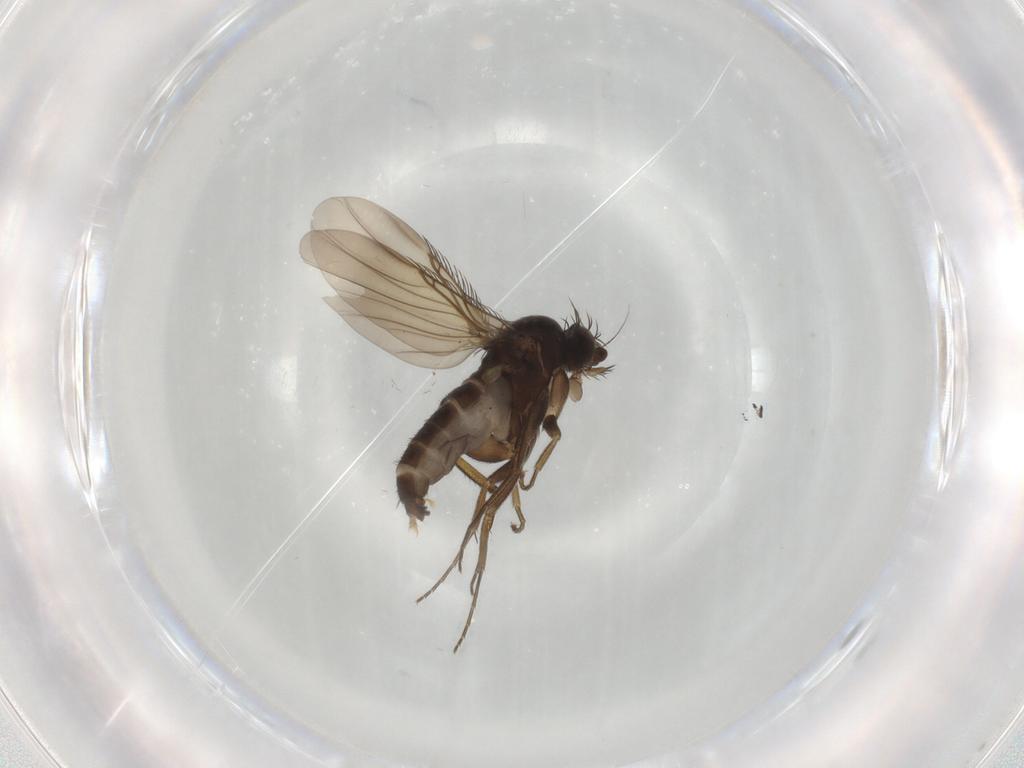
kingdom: Animalia
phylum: Arthropoda
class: Insecta
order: Diptera
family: Phoridae
